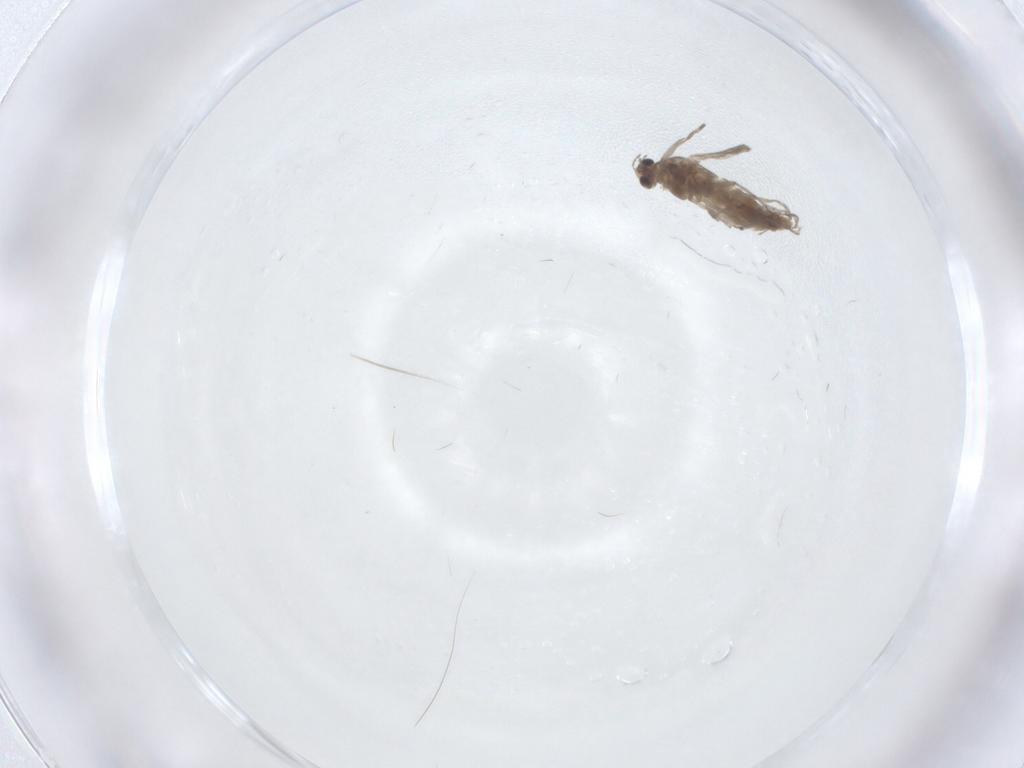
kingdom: Animalia
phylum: Arthropoda
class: Insecta
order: Diptera
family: Chironomidae
